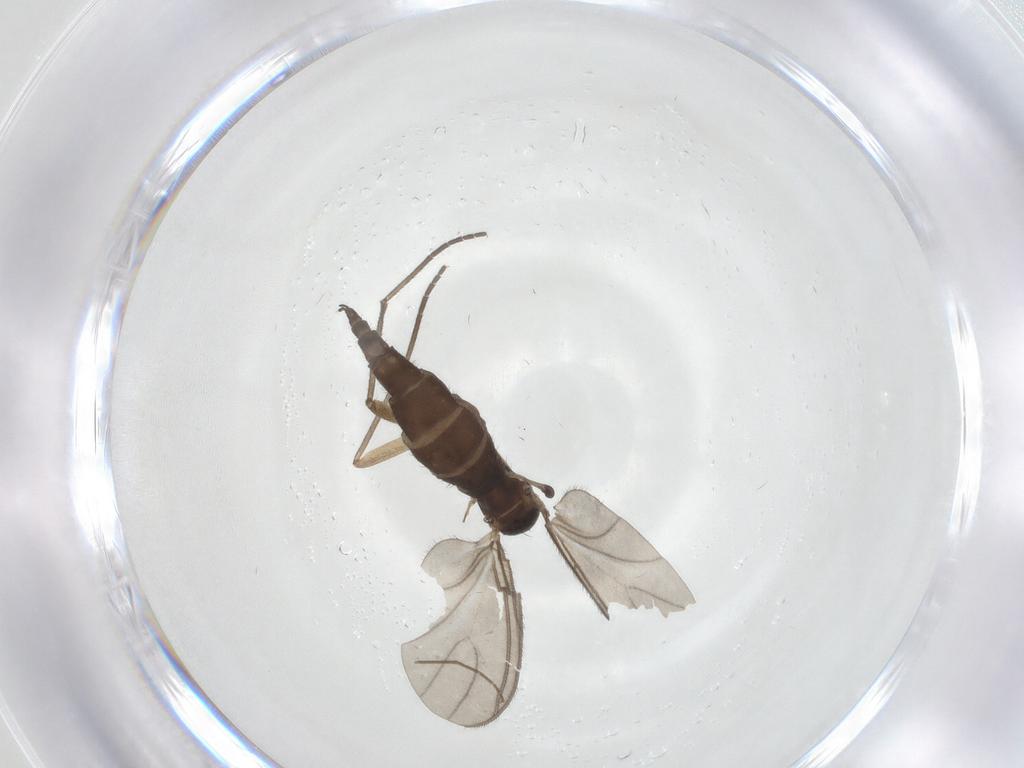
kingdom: Animalia
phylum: Arthropoda
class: Insecta
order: Diptera
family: Sciaridae
